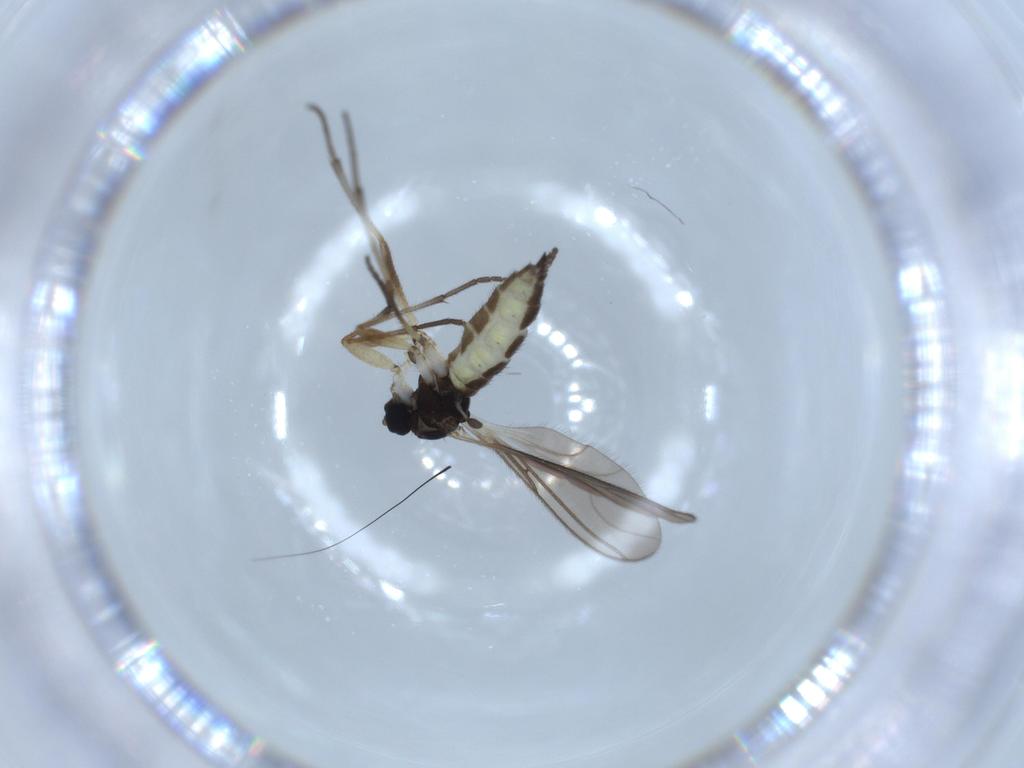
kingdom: Animalia
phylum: Arthropoda
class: Insecta
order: Diptera
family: Sciaridae
